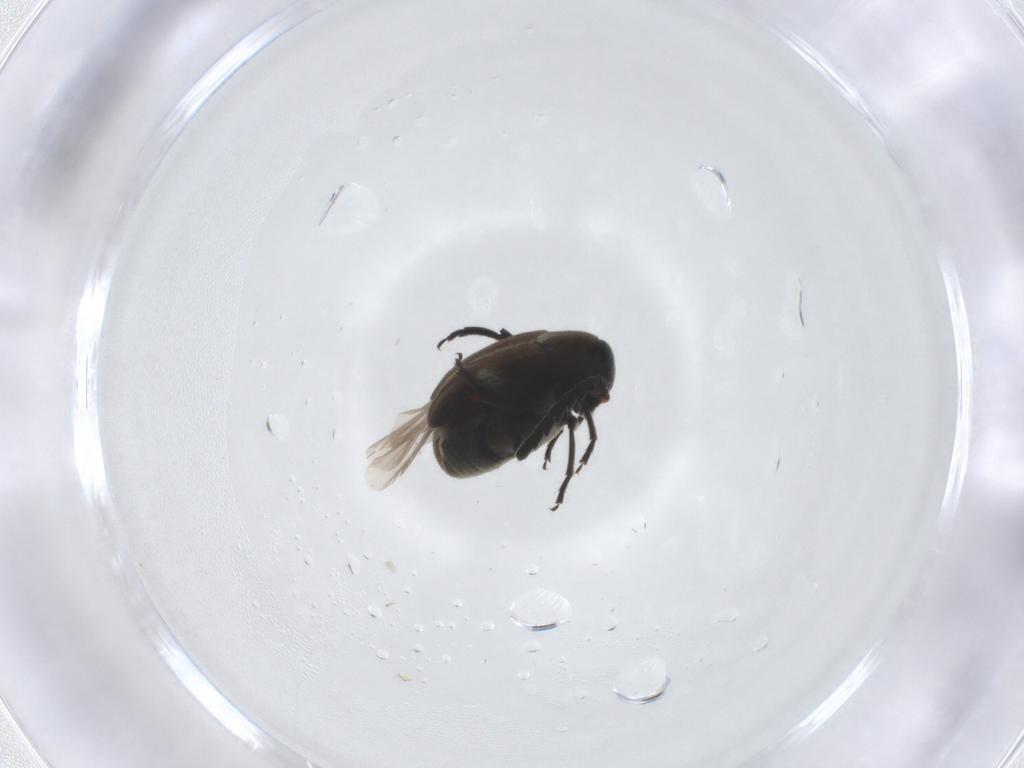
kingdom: Animalia
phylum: Arthropoda
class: Insecta
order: Coleoptera
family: Chrysomelidae
